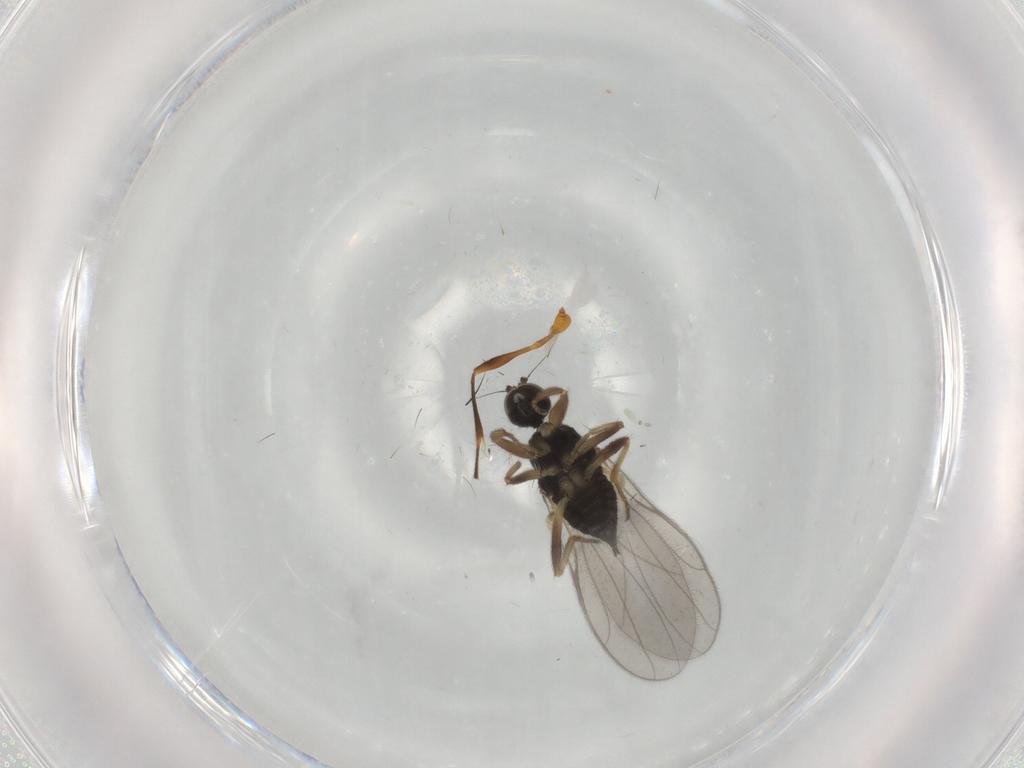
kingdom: Animalia
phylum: Arthropoda
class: Insecta
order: Diptera
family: Hybotidae
